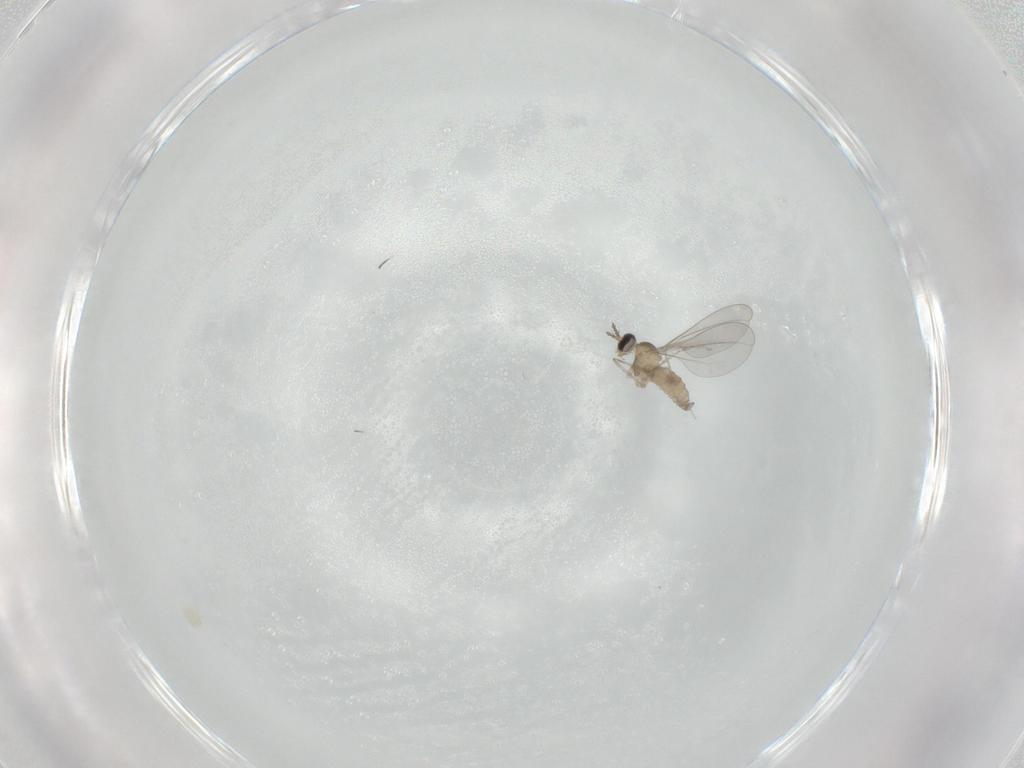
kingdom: Animalia
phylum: Arthropoda
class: Insecta
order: Diptera
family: Cecidomyiidae
